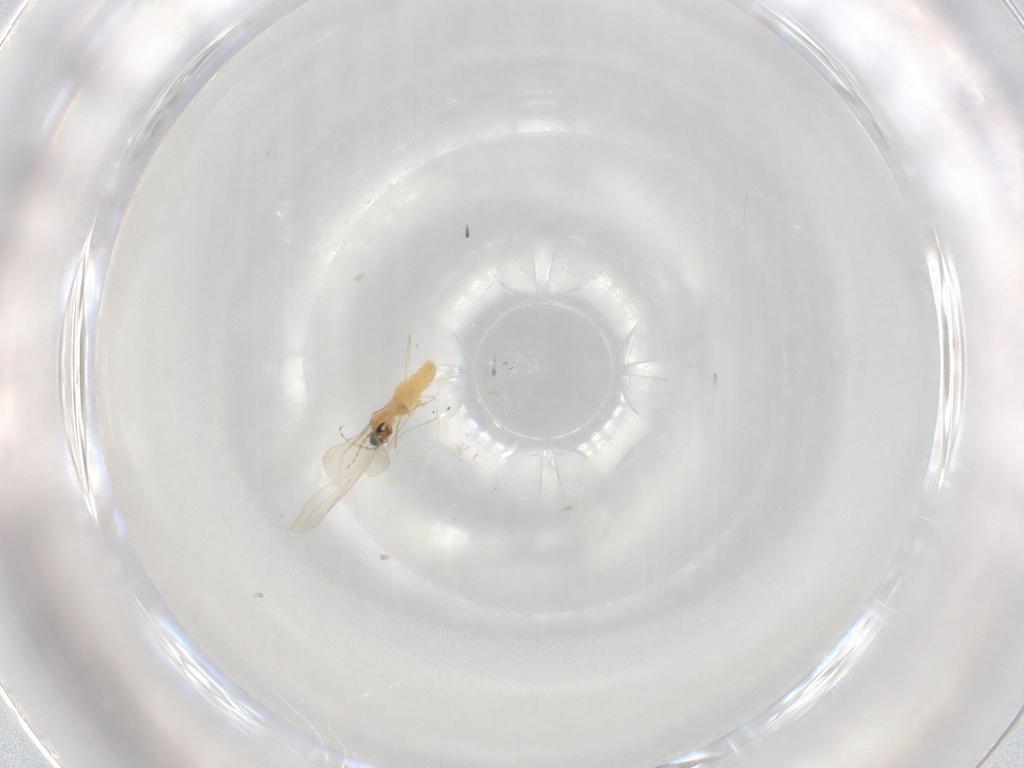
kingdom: Animalia
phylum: Arthropoda
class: Insecta
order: Diptera
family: Cecidomyiidae
